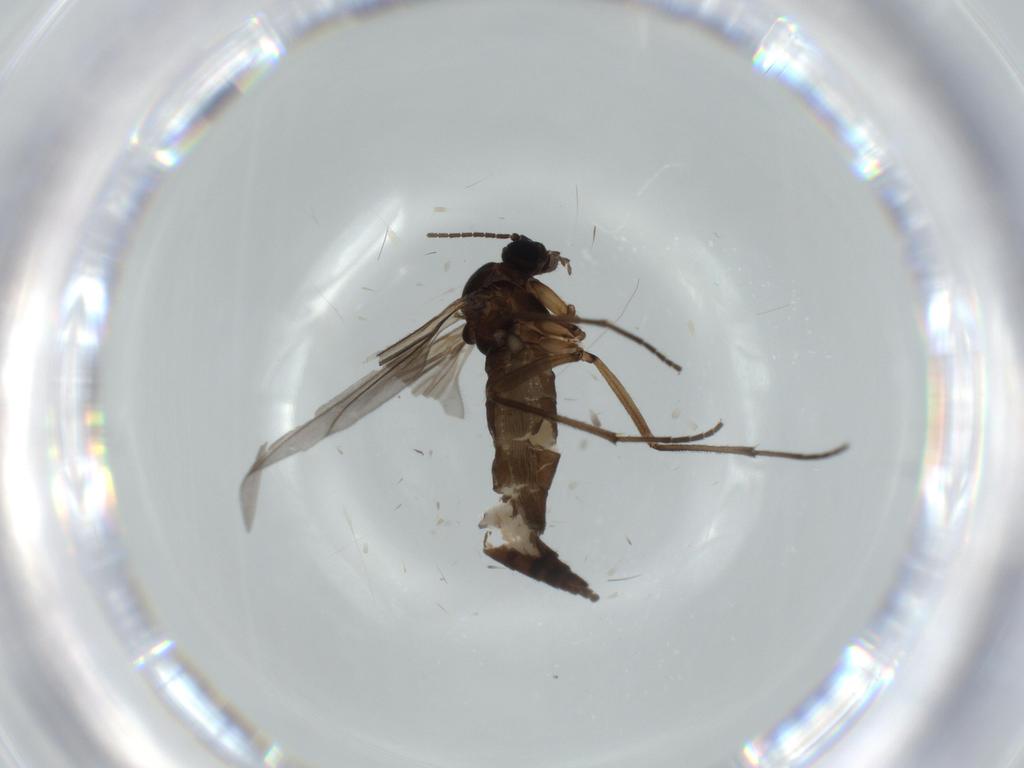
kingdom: Animalia
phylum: Arthropoda
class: Insecta
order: Diptera
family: Sciaridae
